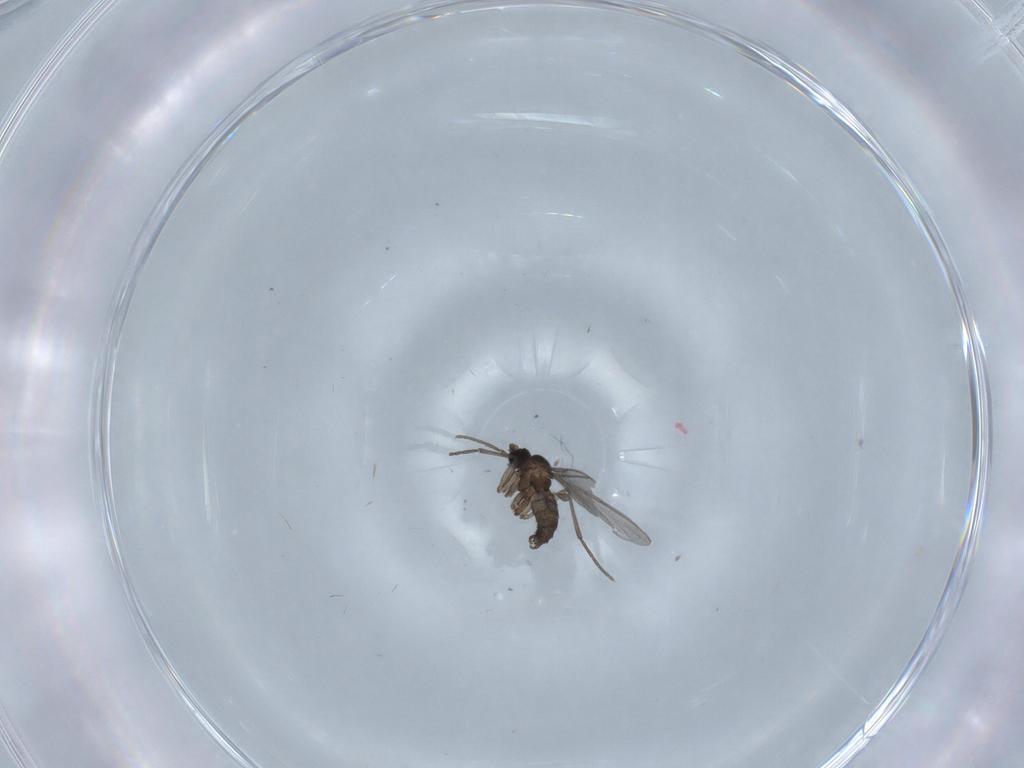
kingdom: Animalia
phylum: Arthropoda
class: Insecta
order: Diptera
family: Sciaridae
